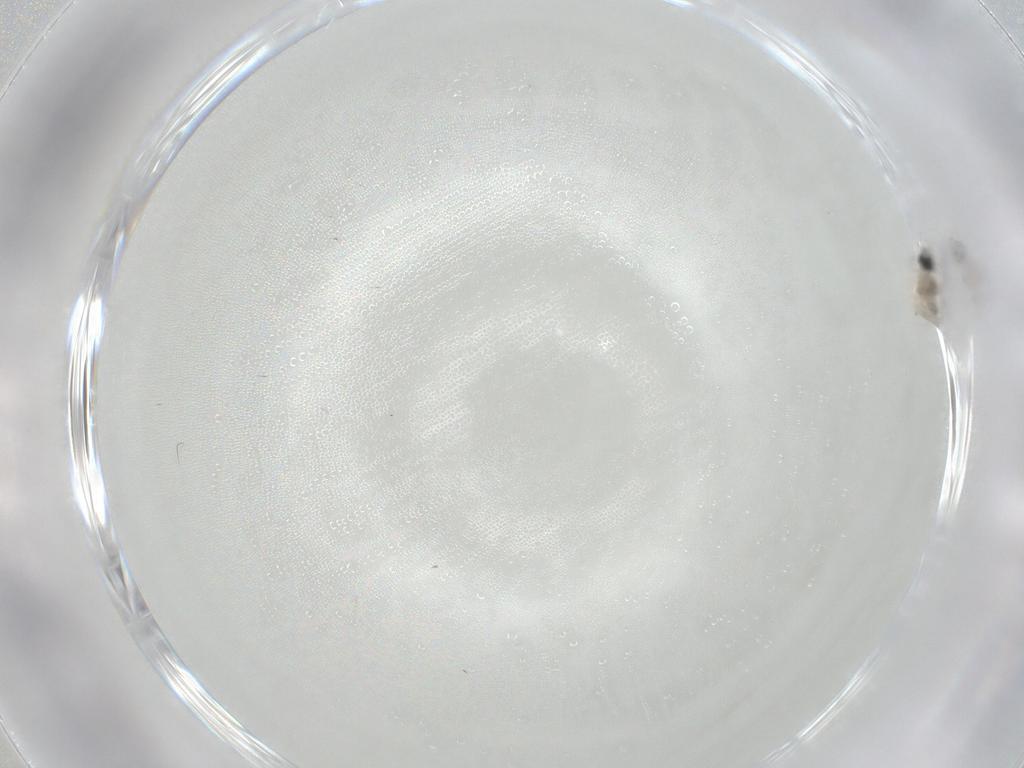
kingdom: Animalia
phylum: Arthropoda
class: Insecta
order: Diptera
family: Cecidomyiidae
